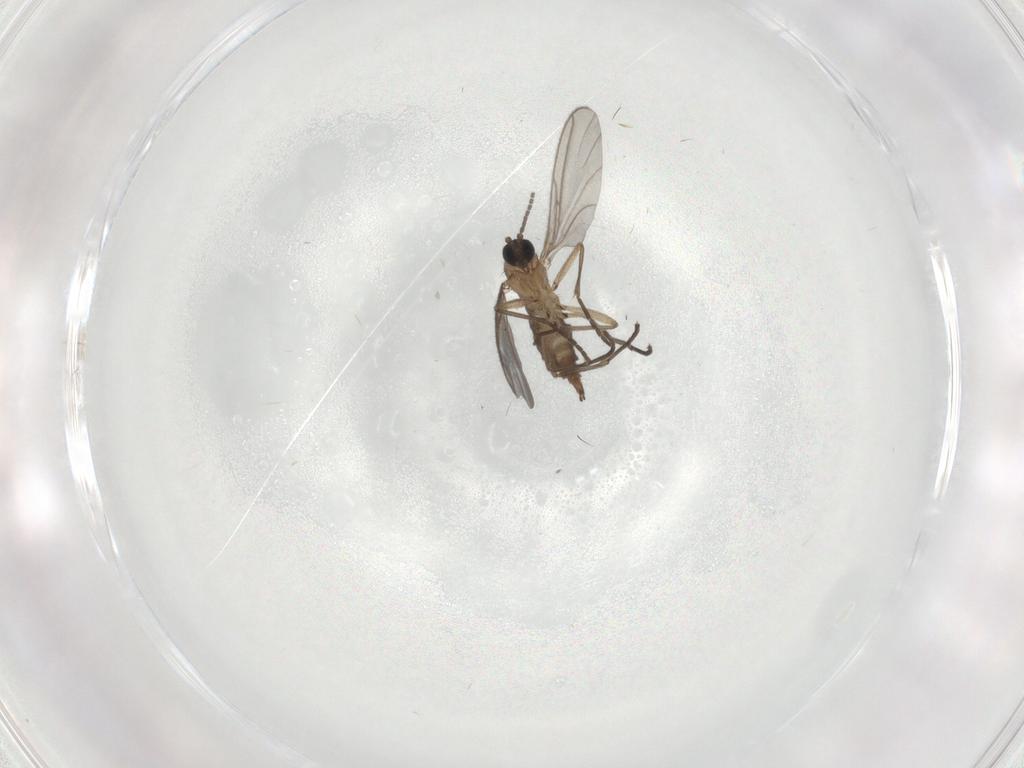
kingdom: Animalia
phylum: Arthropoda
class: Insecta
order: Diptera
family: Sciaridae
